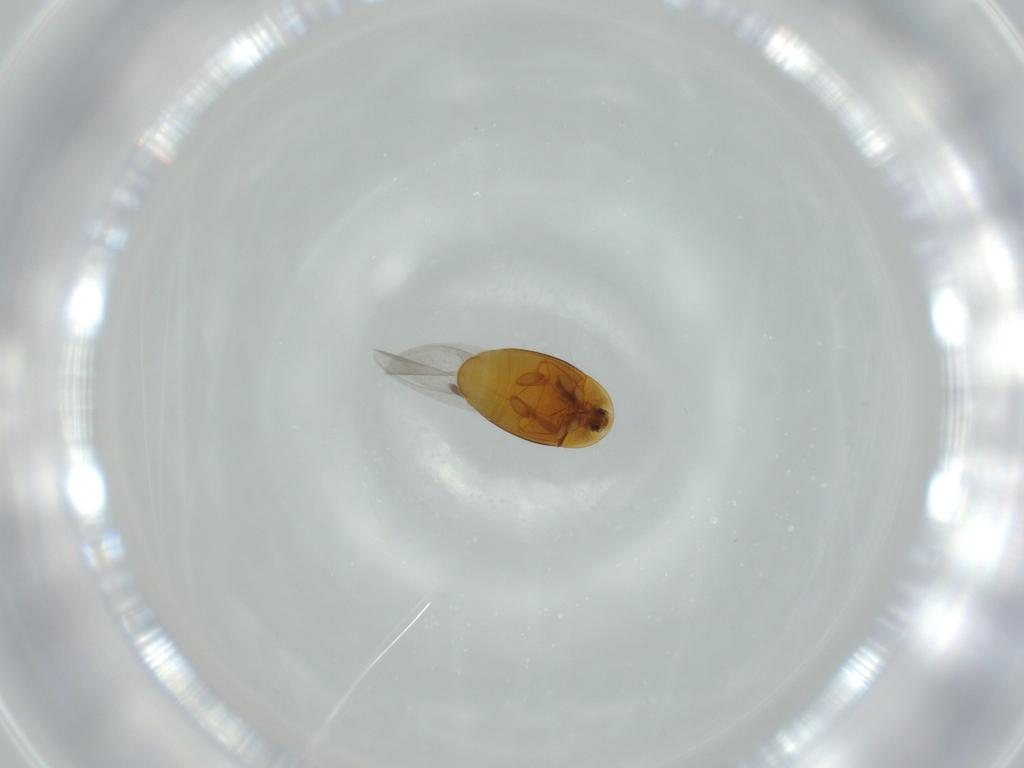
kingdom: Animalia
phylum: Arthropoda
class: Insecta
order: Coleoptera
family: Corylophidae
